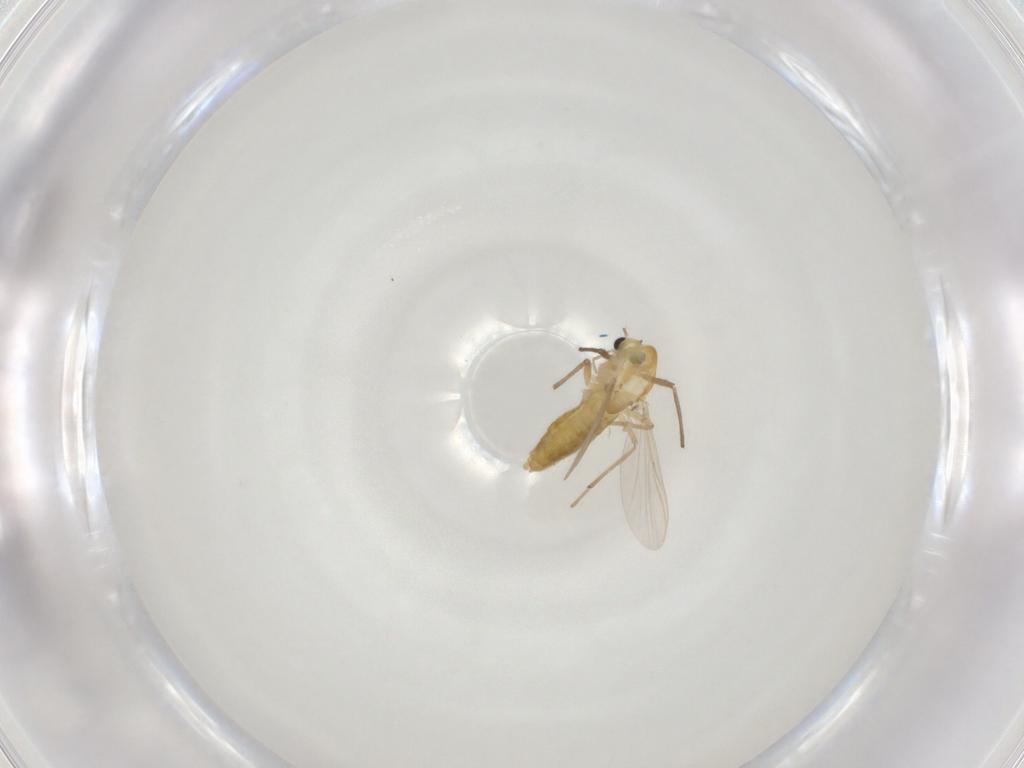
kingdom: Animalia
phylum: Arthropoda
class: Insecta
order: Diptera
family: Chironomidae
